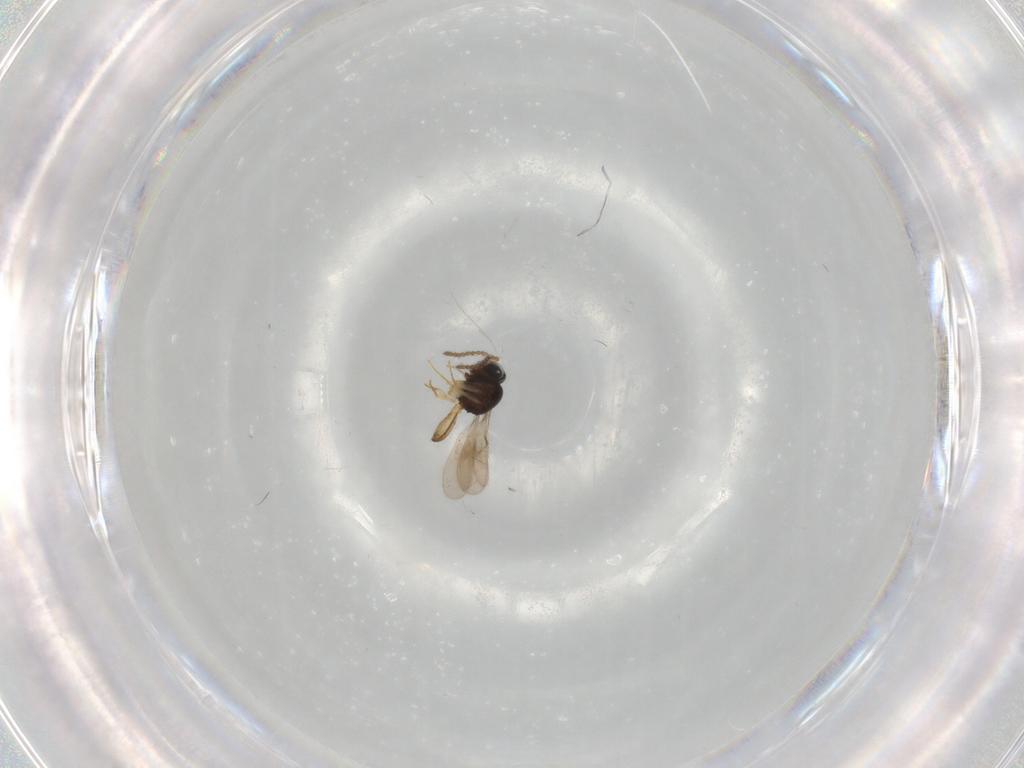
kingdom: Animalia
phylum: Arthropoda
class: Insecta
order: Hymenoptera
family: Scelionidae
